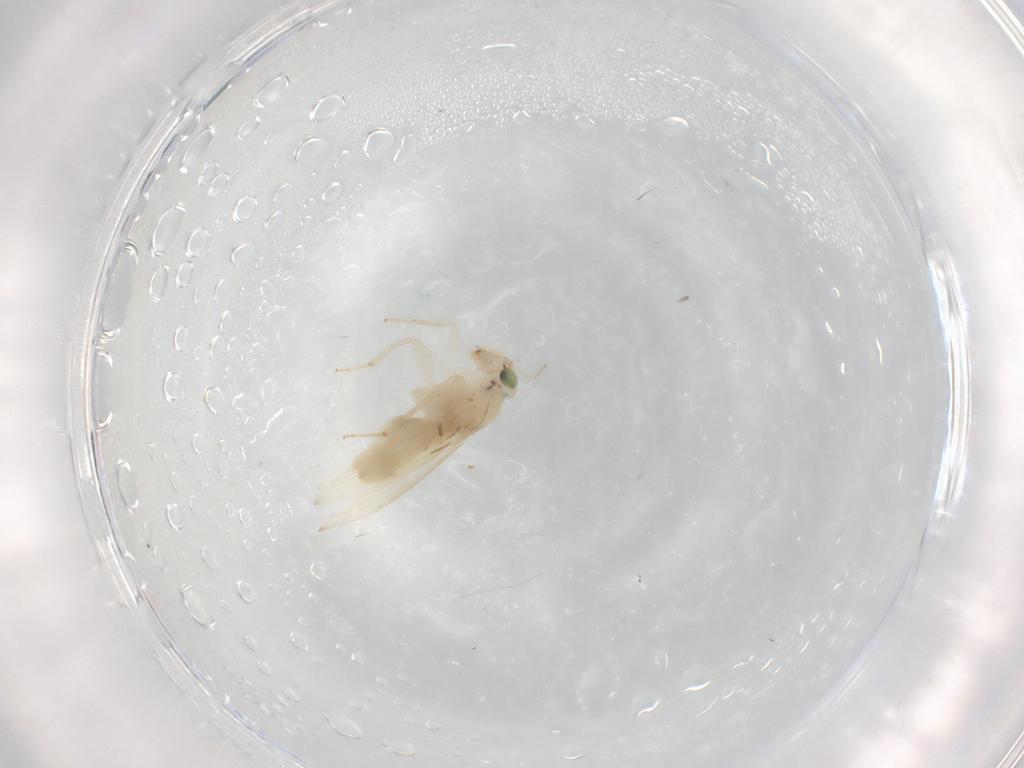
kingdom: Animalia
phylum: Arthropoda
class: Insecta
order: Psocodea
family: Lepidopsocidae
